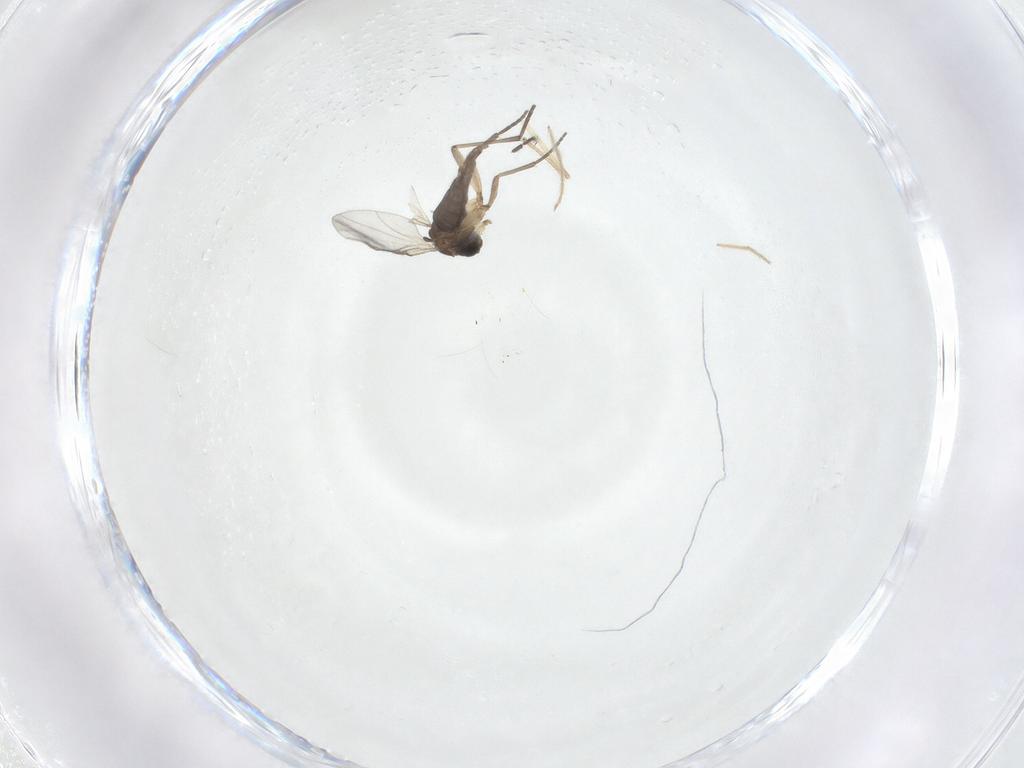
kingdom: Animalia
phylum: Arthropoda
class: Insecta
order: Diptera
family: Chironomidae
